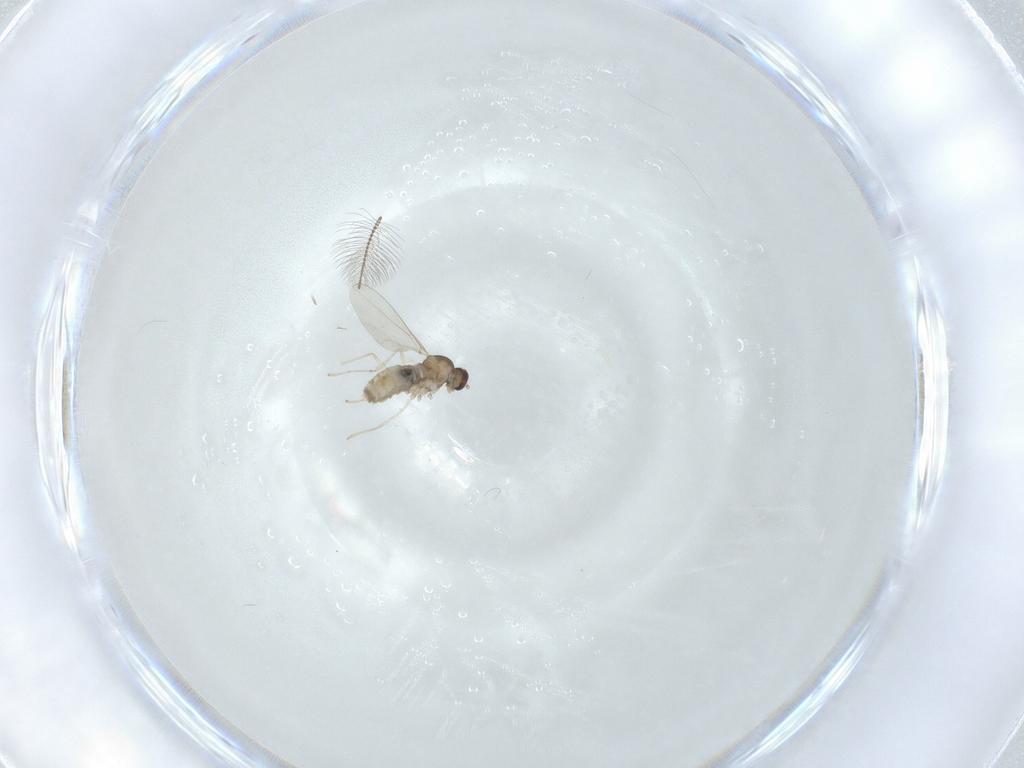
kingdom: Animalia
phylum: Arthropoda
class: Insecta
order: Diptera
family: Cecidomyiidae
